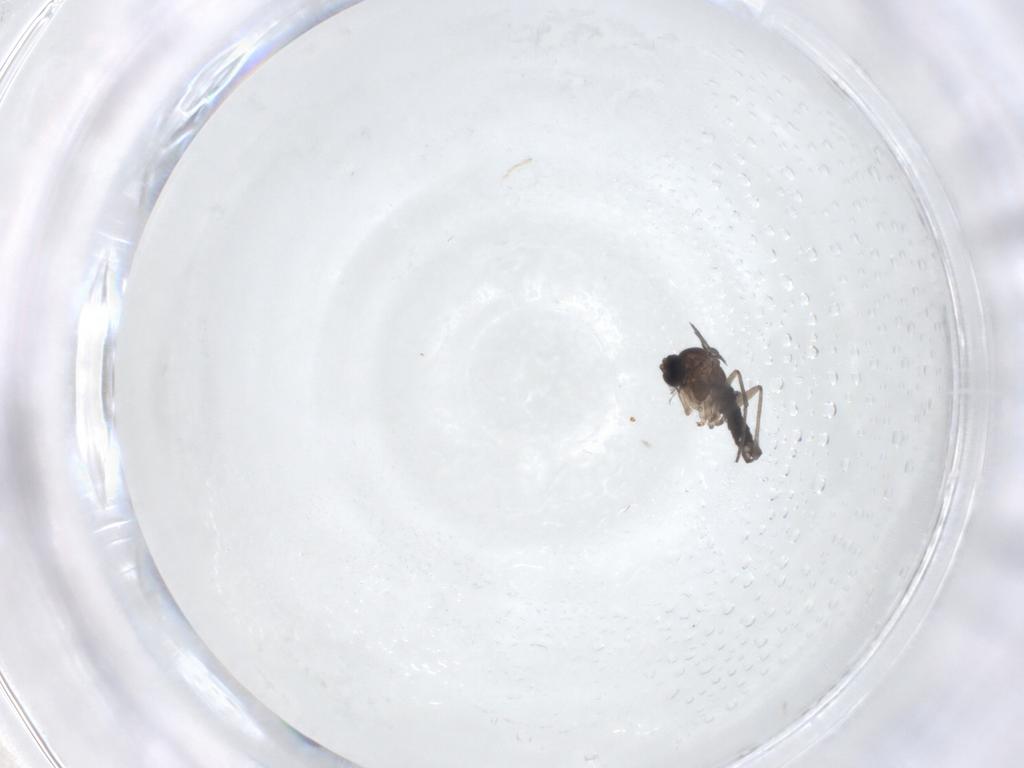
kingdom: Animalia
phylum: Arthropoda
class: Insecta
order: Diptera
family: Sciaridae
